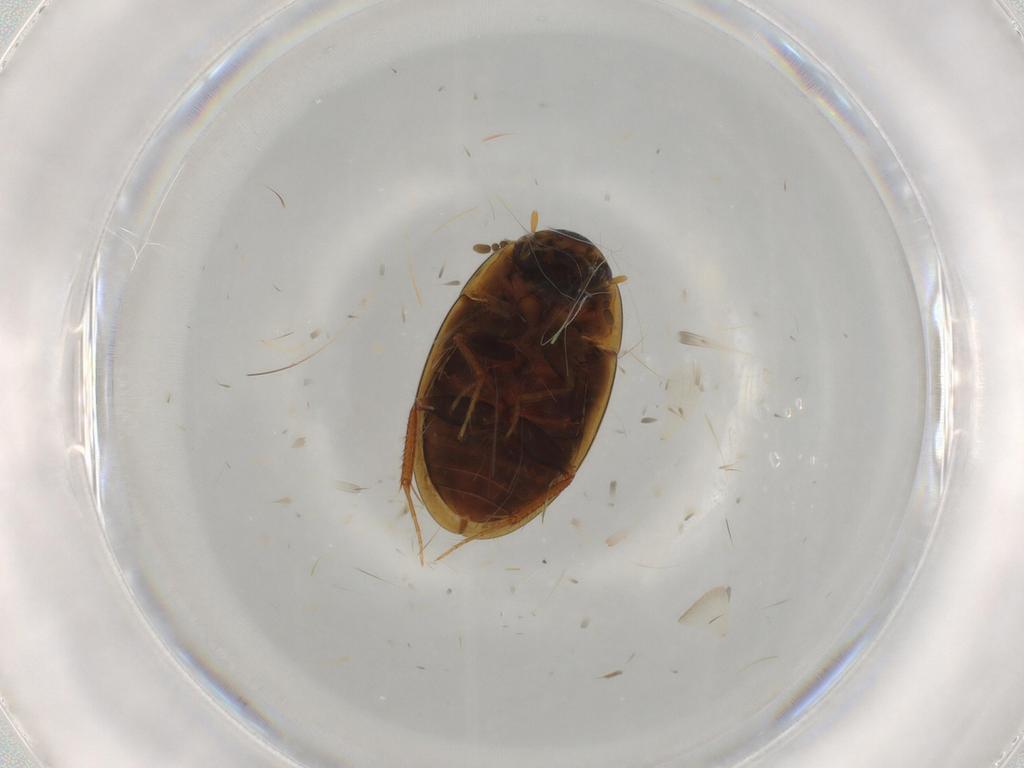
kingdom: Animalia
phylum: Arthropoda
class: Insecta
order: Coleoptera
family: Hydrophilidae
